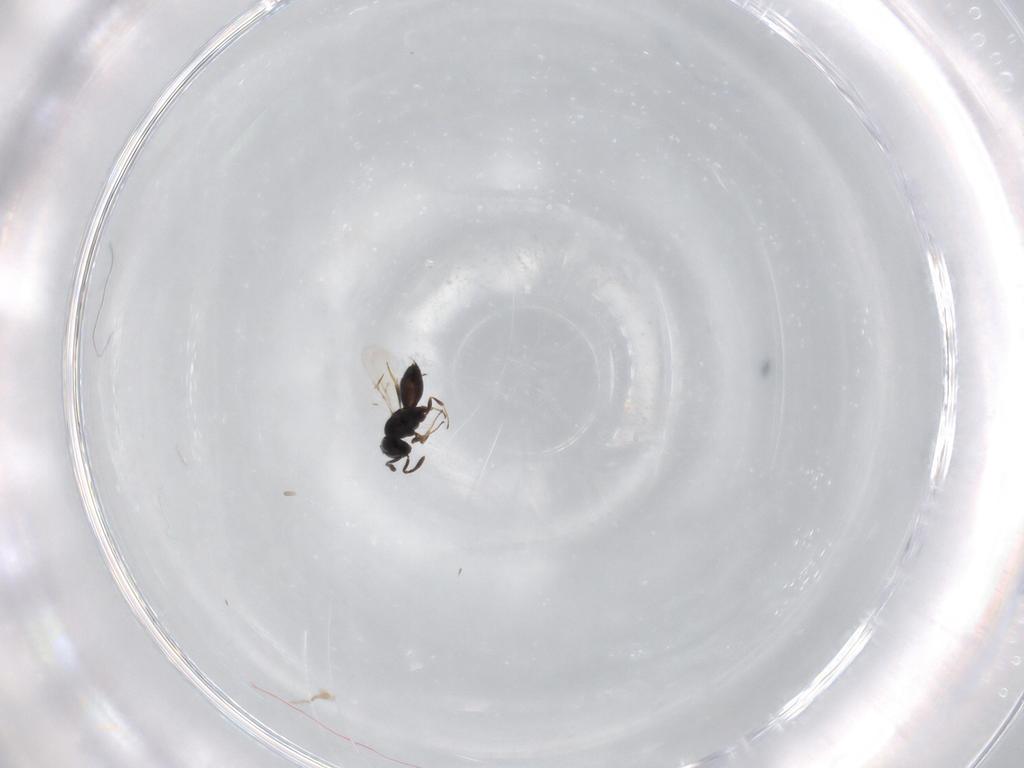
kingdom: Animalia
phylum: Arthropoda
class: Insecta
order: Hymenoptera
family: Scelionidae
